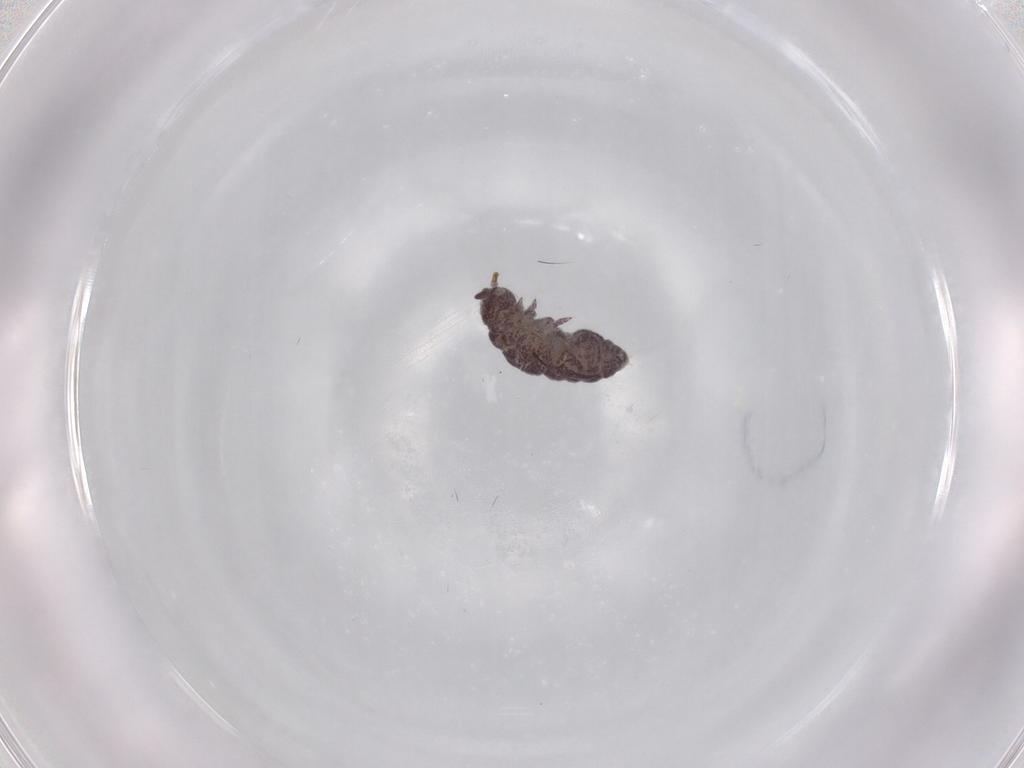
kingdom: Animalia
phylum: Arthropoda
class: Collembola
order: Poduromorpha
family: Hypogastruridae
